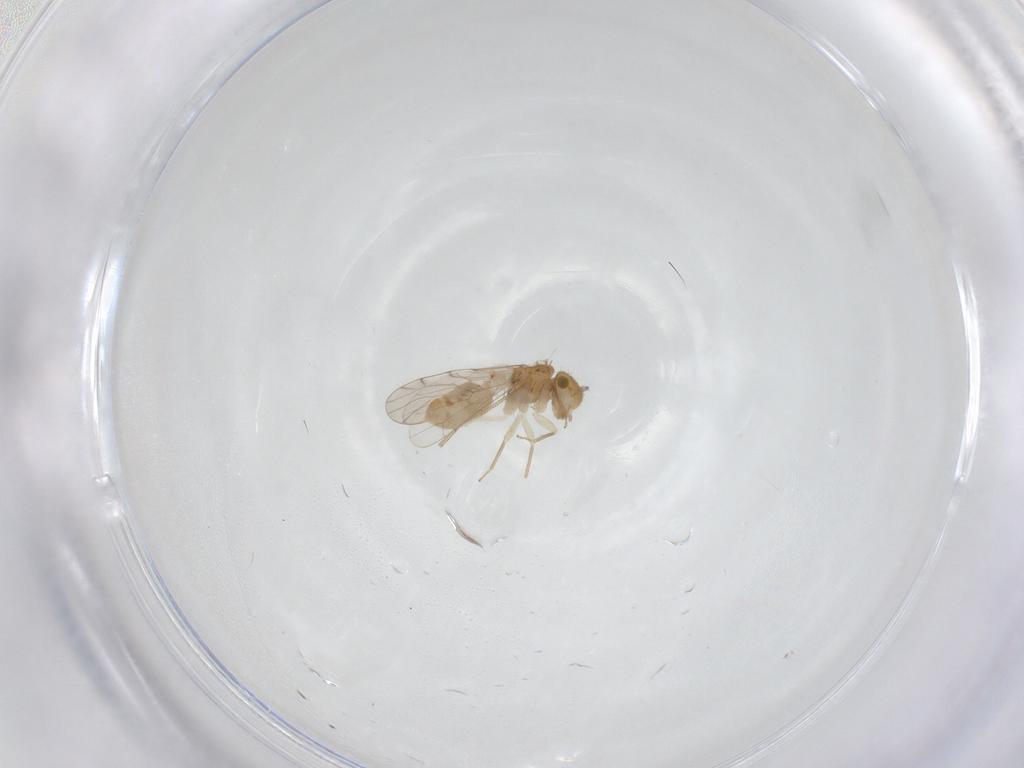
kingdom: Animalia
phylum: Arthropoda
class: Insecta
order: Psocodea
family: Ectopsocidae
